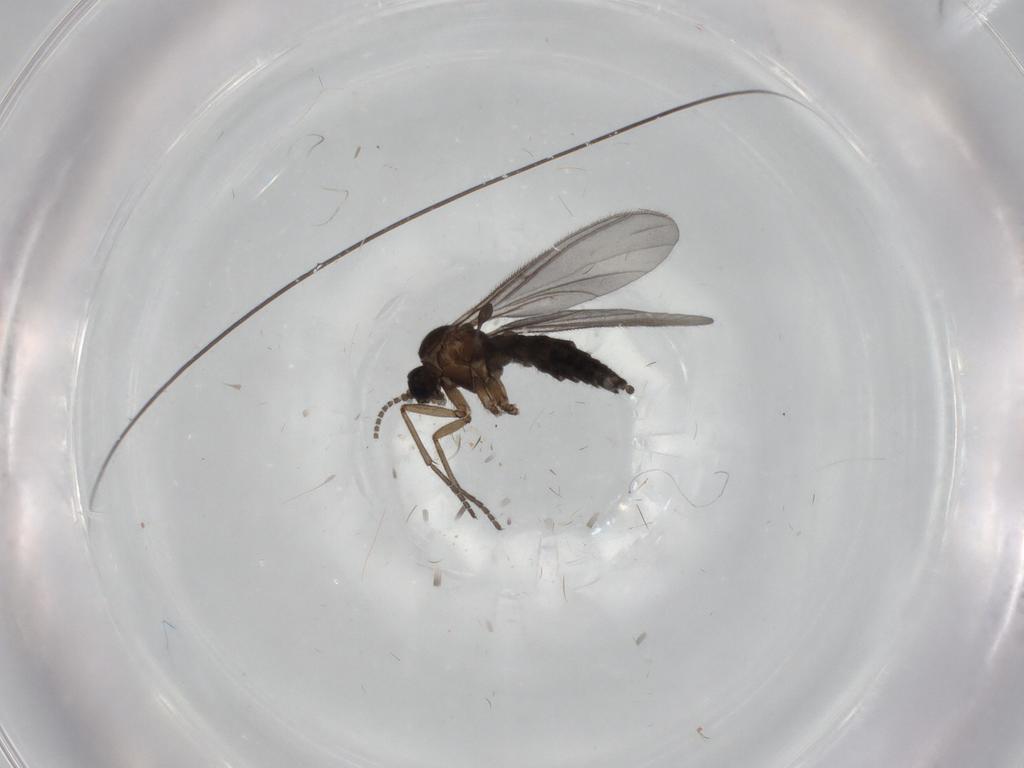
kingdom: Animalia
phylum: Arthropoda
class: Insecta
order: Diptera
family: Sciaridae
